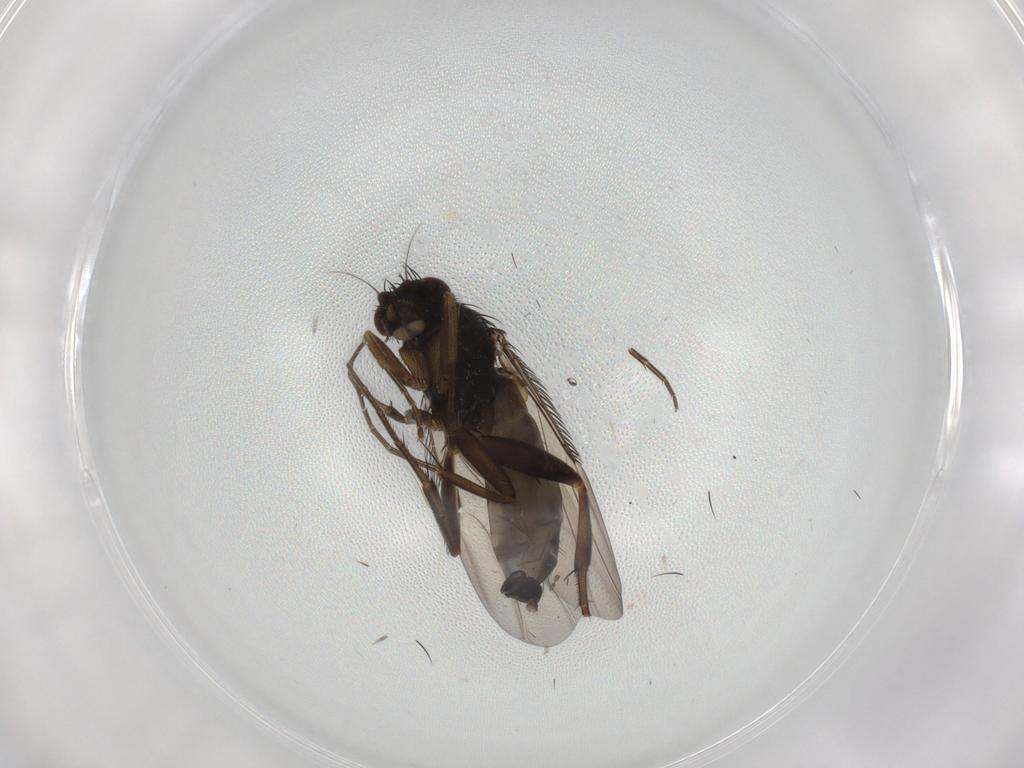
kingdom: Animalia
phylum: Arthropoda
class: Insecta
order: Diptera
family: Phoridae
